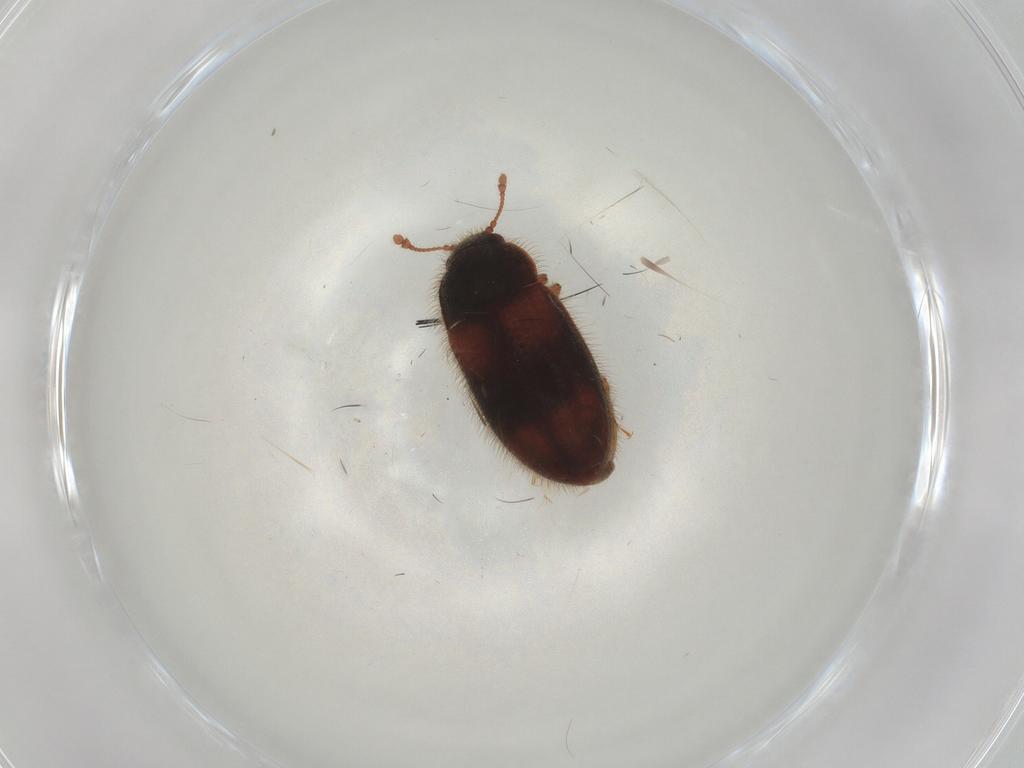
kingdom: Animalia
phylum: Arthropoda
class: Insecta
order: Coleoptera
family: Biphyllidae
